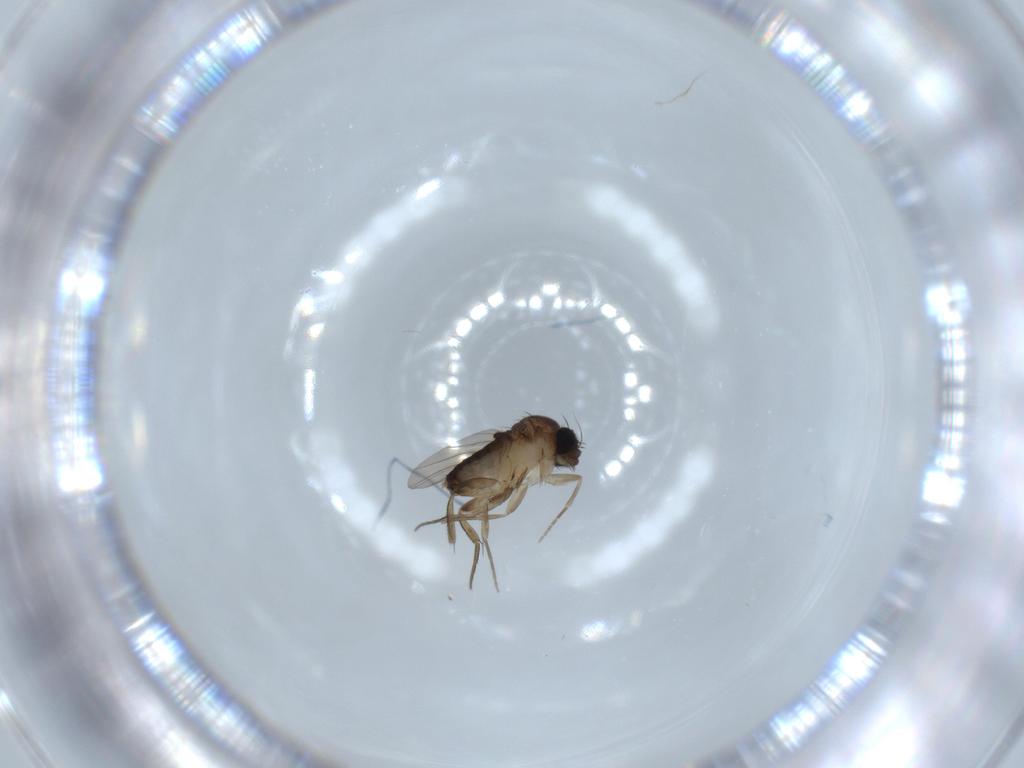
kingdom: Animalia
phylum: Arthropoda
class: Insecta
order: Diptera
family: Phoridae
